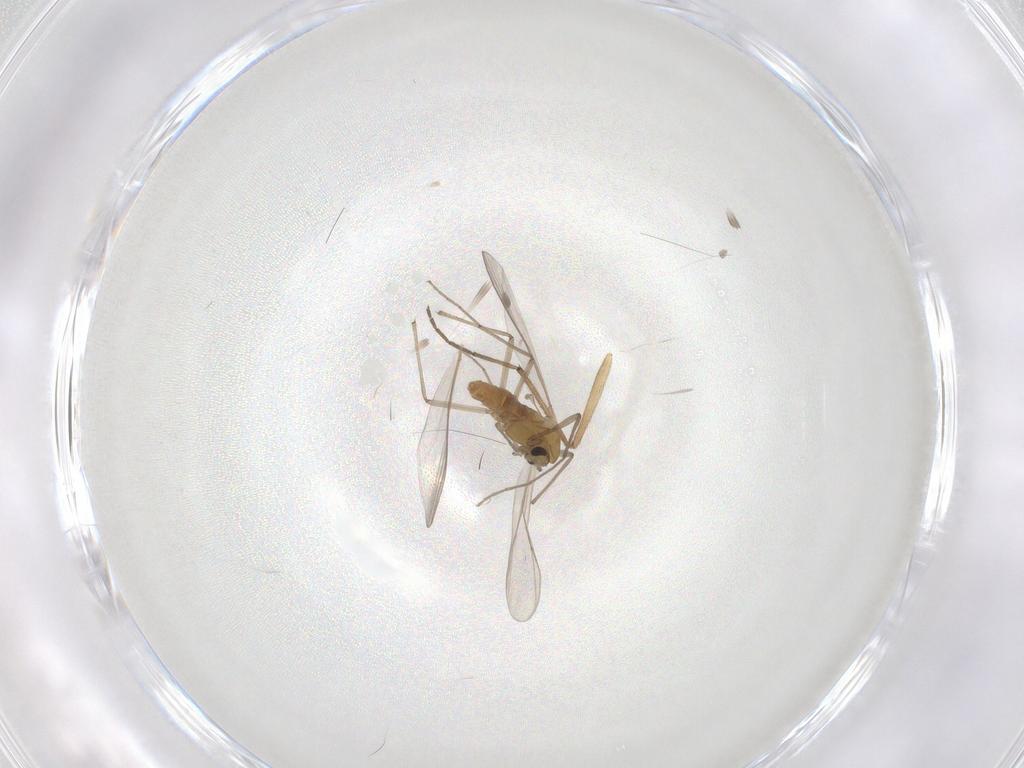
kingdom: Animalia
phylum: Arthropoda
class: Insecta
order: Diptera
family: Chironomidae
